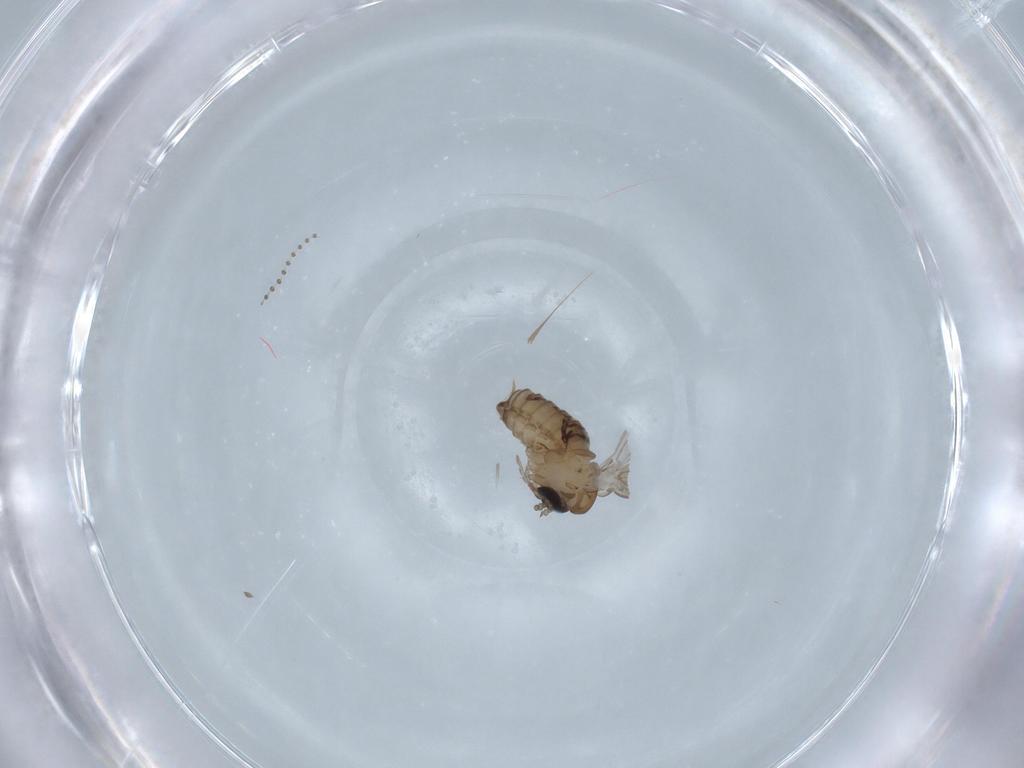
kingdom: Animalia
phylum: Arthropoda
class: Insecta
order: Diptera
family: Psychodidae
